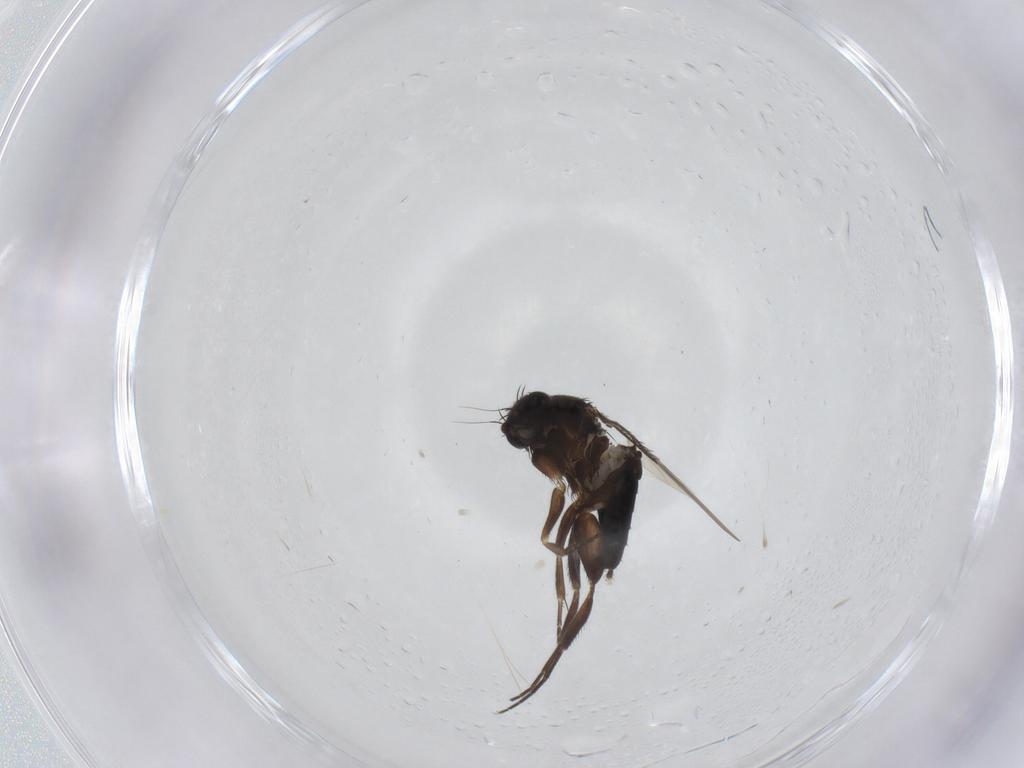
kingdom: Animalia
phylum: Arthropoda
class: Insecta
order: Diptera
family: Phoridae
